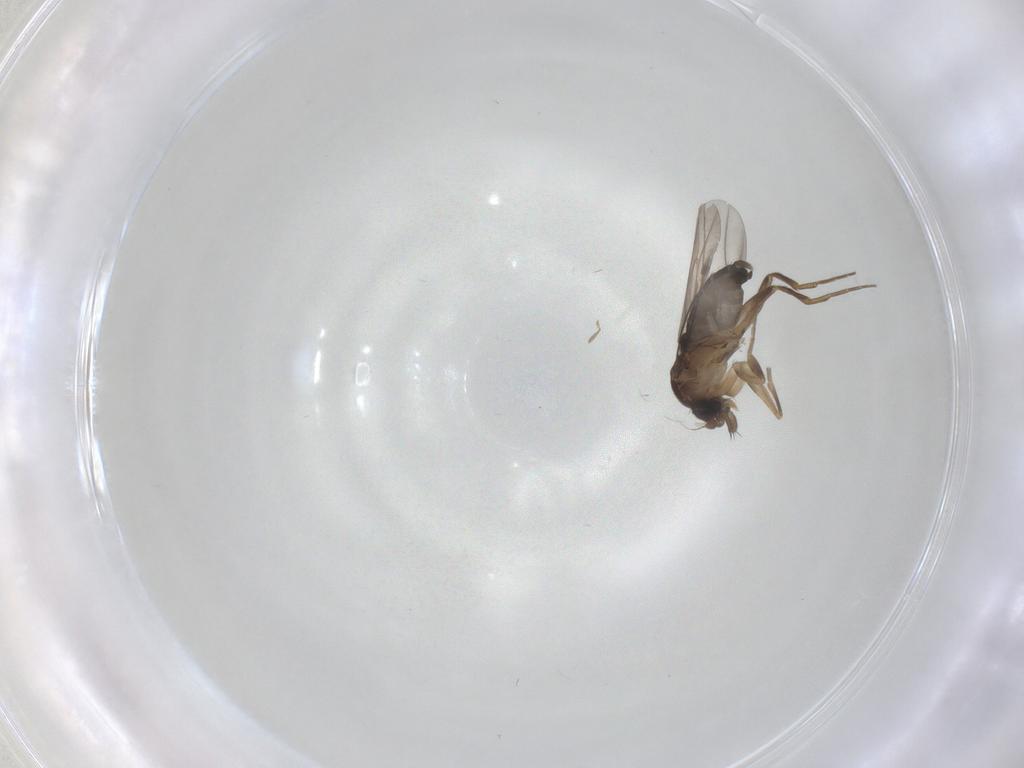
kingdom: Animalia
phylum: Arthropoda
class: Insecta
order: Diptera
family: Phoridae
